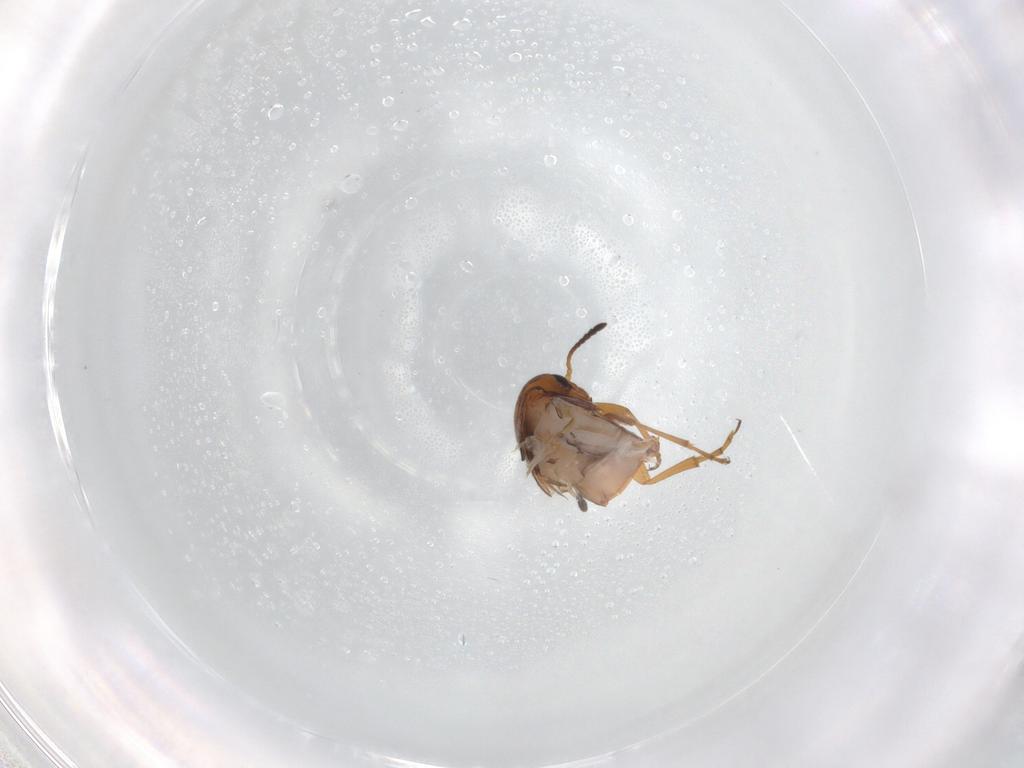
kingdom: Animalia
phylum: Arthropoda
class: Insecta
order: Coleoptera
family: Scraptiidae
